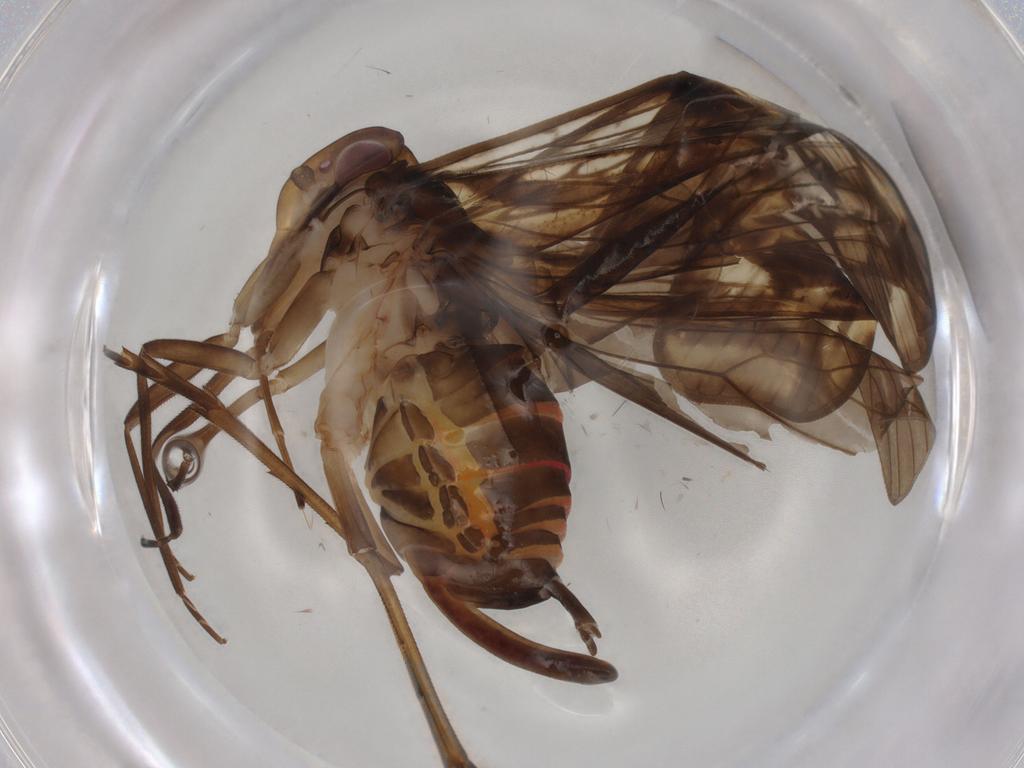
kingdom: Animalia
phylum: Arthropoda
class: Insecta
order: Hemiptera
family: Cixiidae
